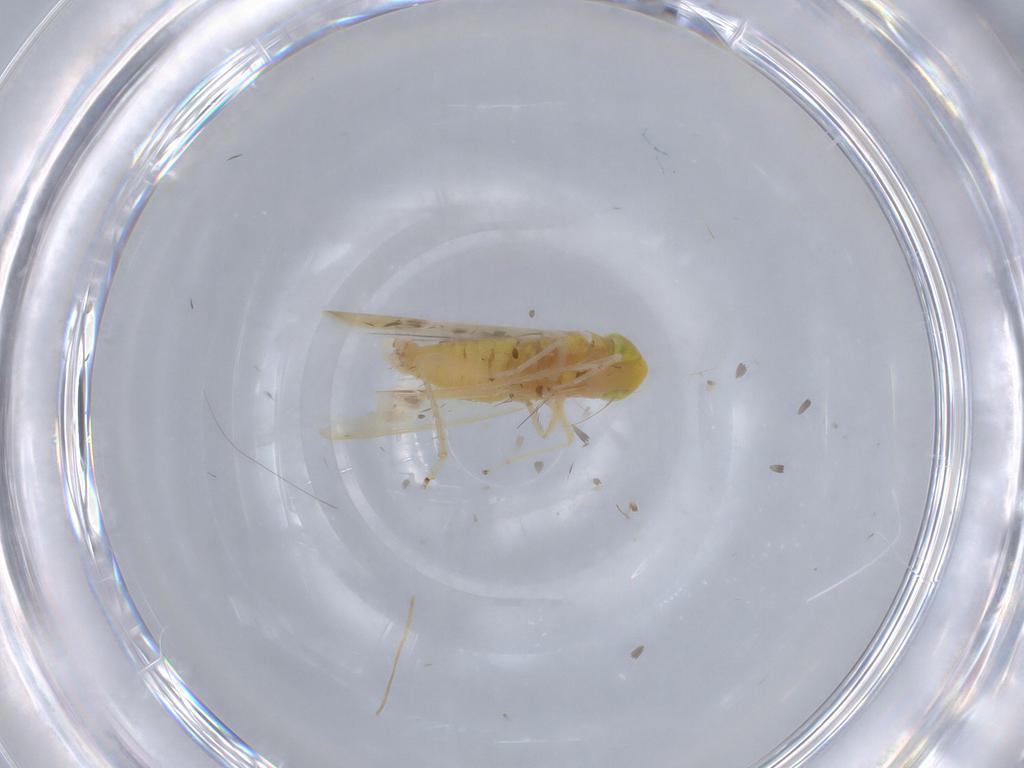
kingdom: Animalia
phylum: Arthropoda
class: Insecta
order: Hemiptera
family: Cicadellidae
